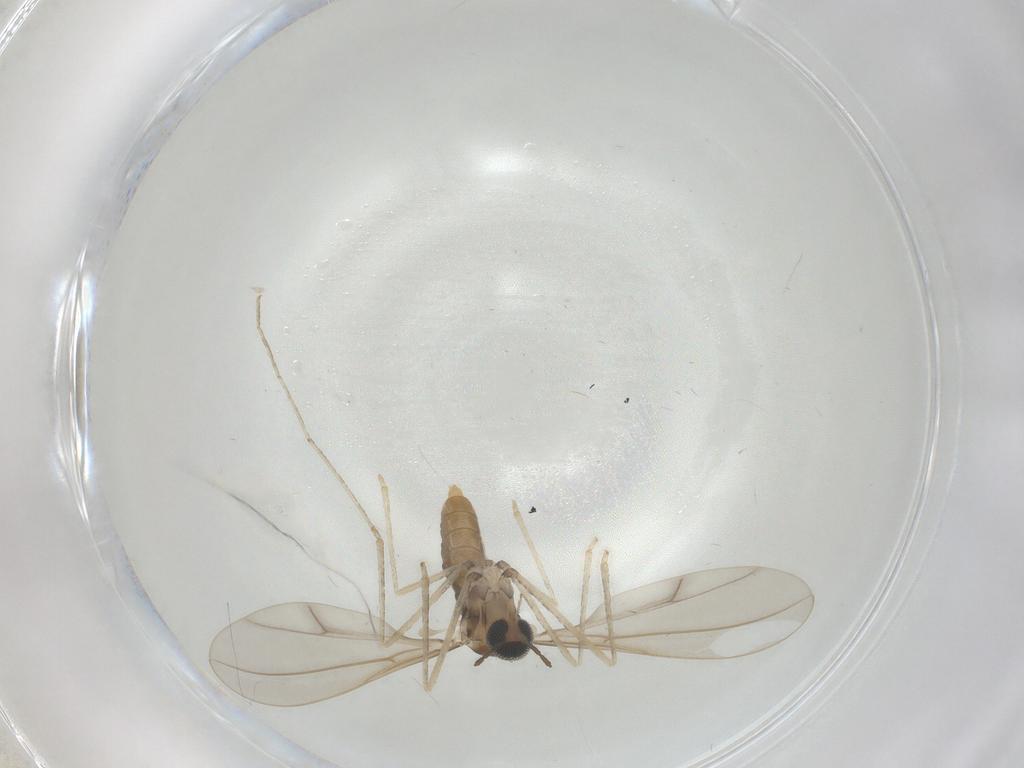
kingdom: Animalia
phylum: Arthropoda
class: Insecta
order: Diptera
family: Cecidomyiidae
